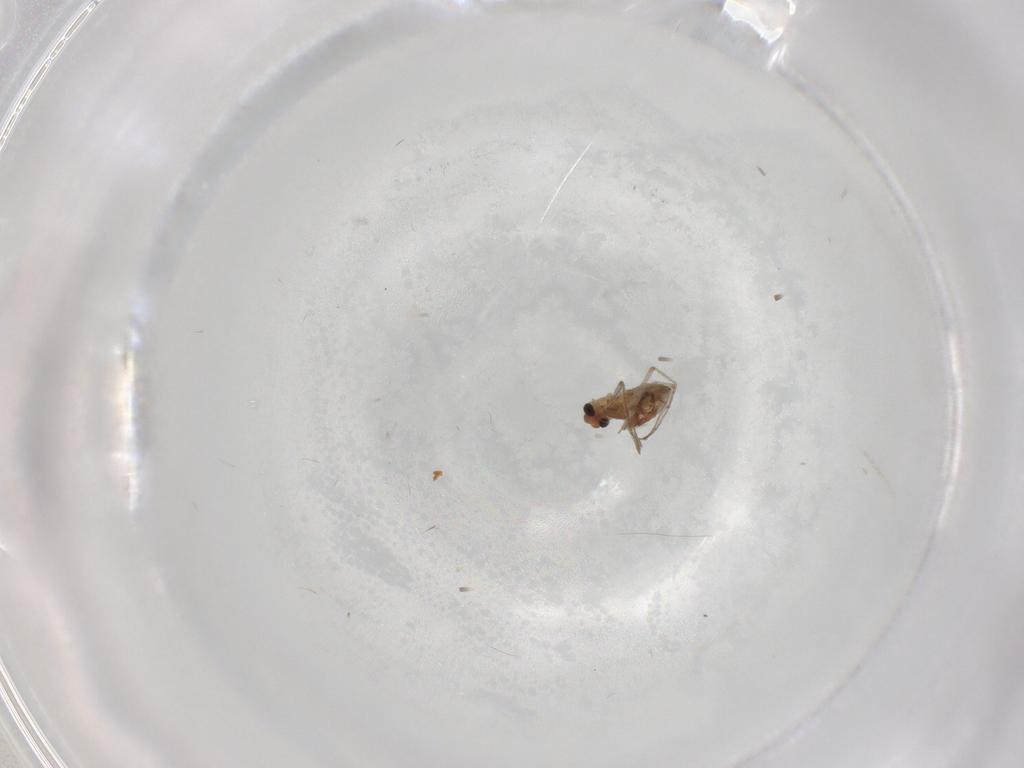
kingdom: Animalia
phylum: Arthropoda
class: Insecta
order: Diptera
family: Chironomidae
